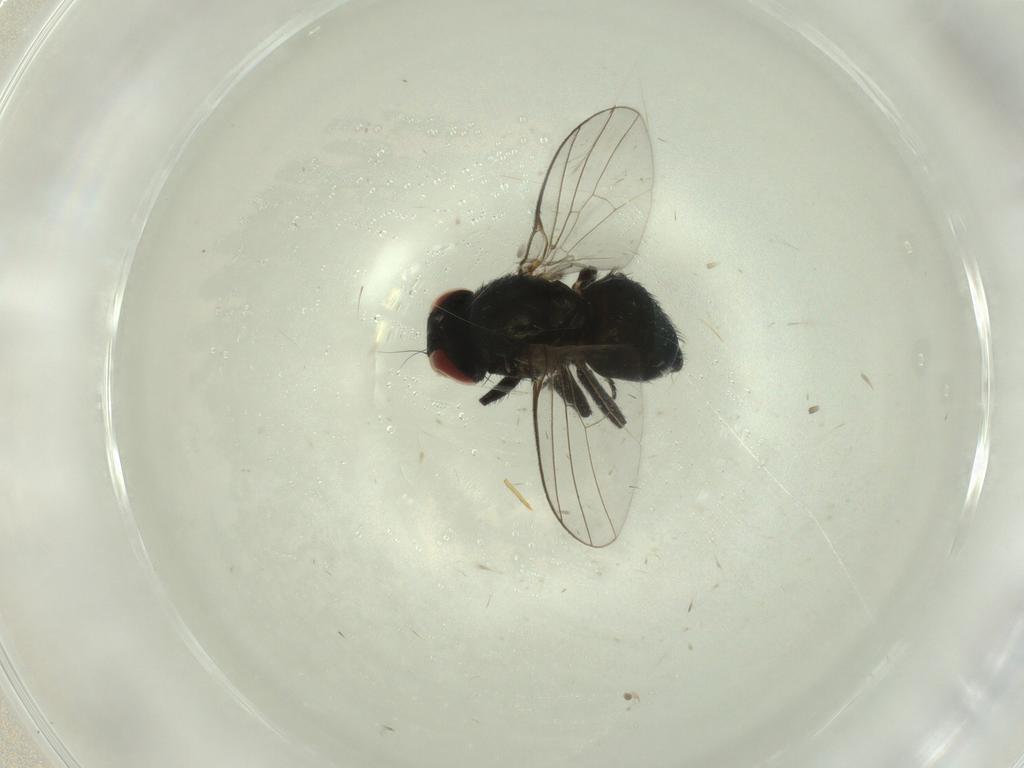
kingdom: Animalia
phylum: Arthropoda
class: Insecta
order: Diptera
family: Agromyzidae
